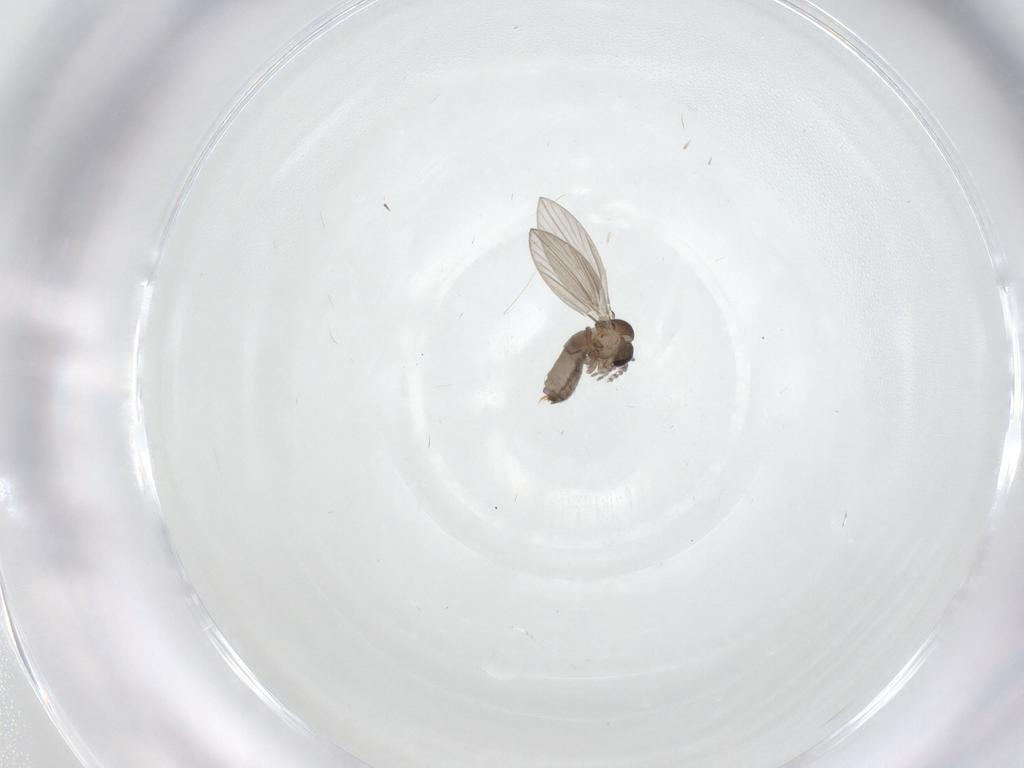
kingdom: Animalia
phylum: Arthropoda
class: Insecta
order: Diptera
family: Psychodidae
